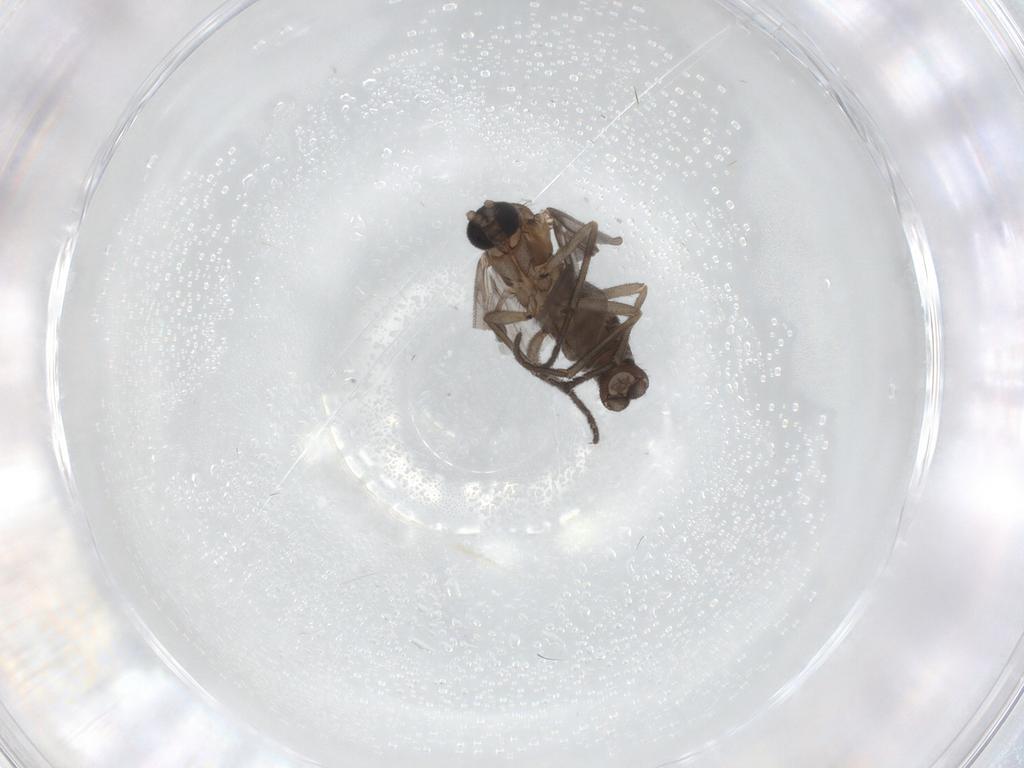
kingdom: Animalia
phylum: Arthropoda
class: Insecta
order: Diptera
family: Sciaridae
